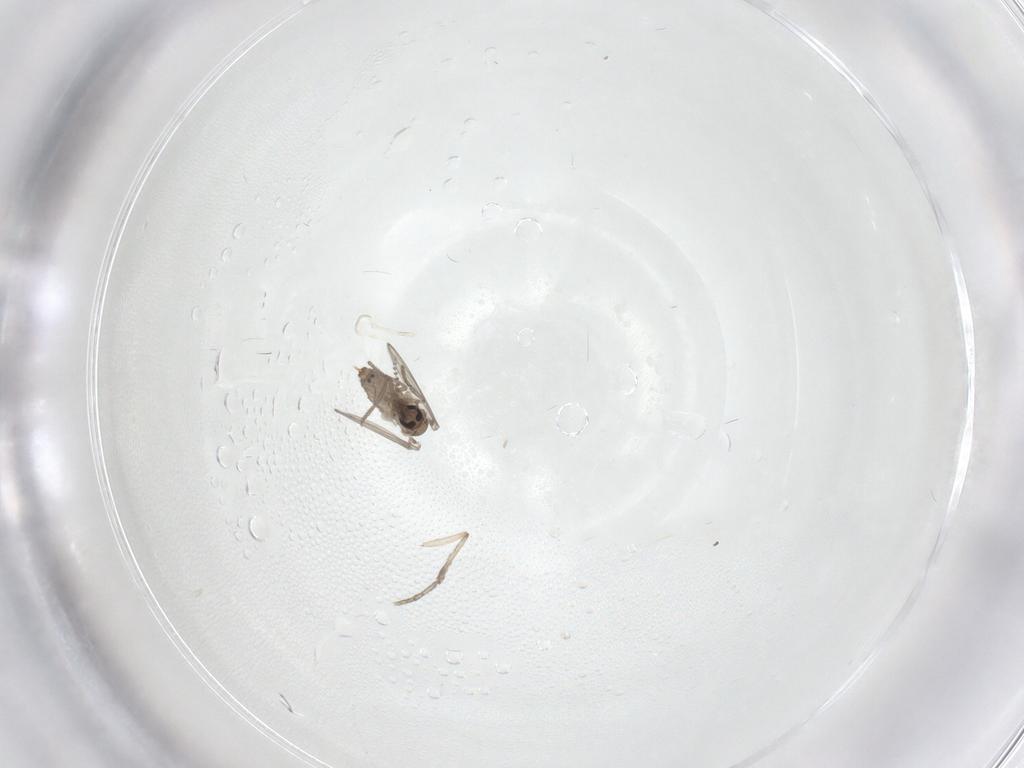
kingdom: Animalia
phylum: Arthropoda
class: Insecta
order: Diptera
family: Psychodidae
